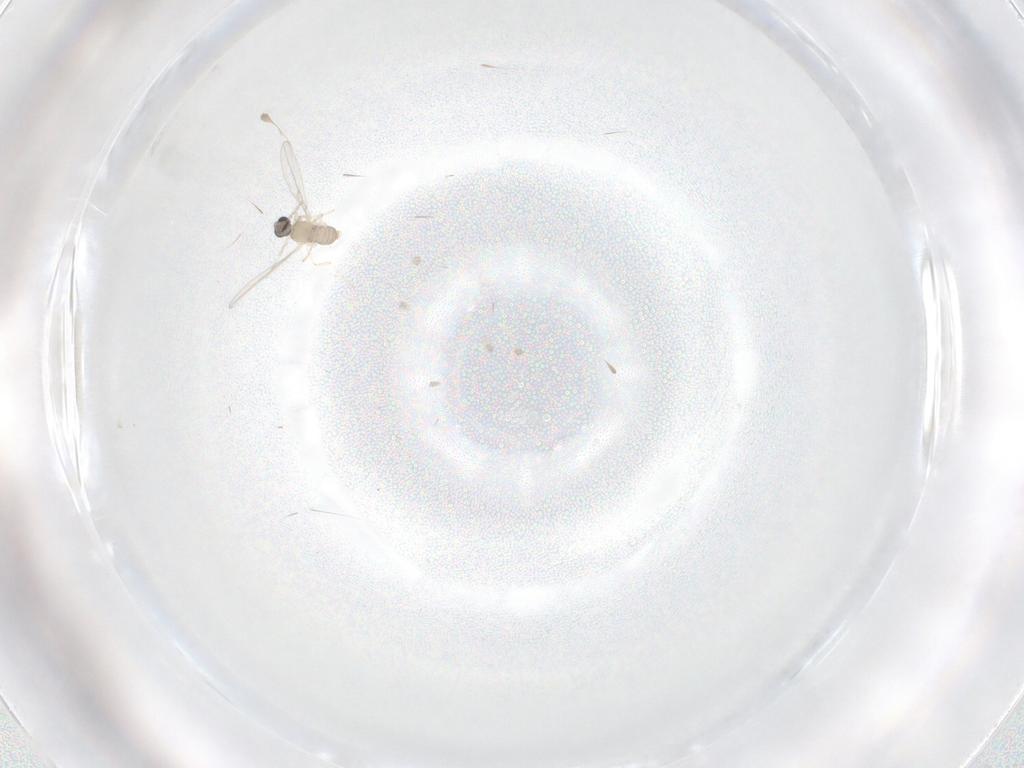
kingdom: Animalia
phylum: Arthropoda
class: Insecta
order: Diptera
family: Cecidomyiidae
